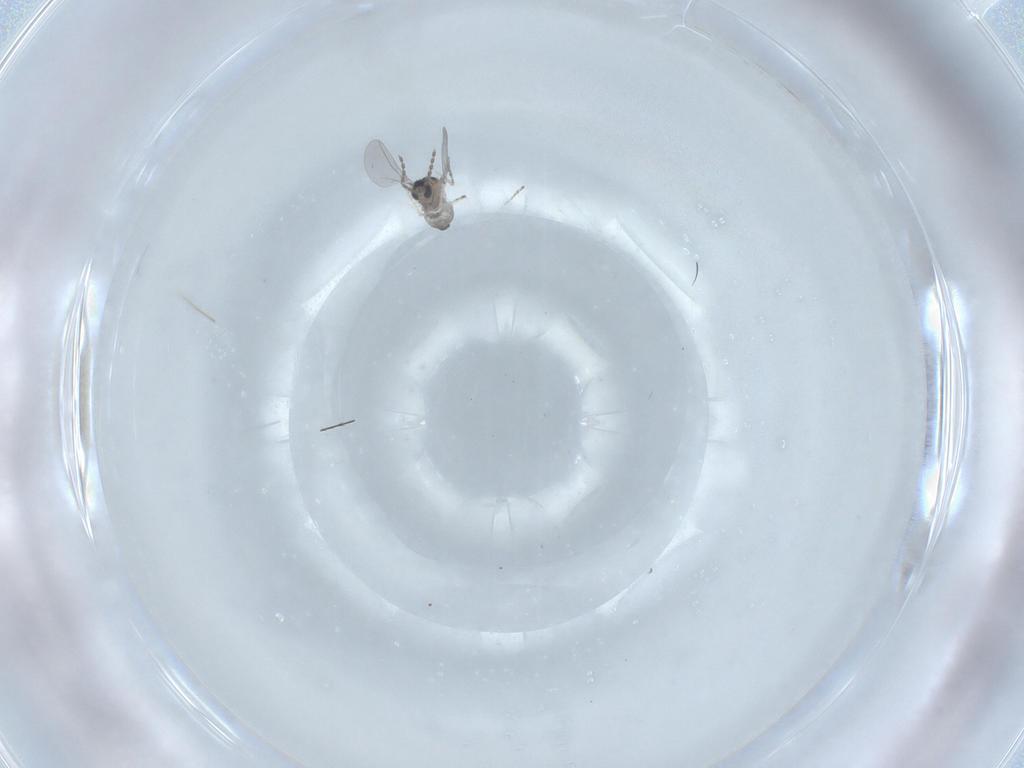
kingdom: Animalia
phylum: Arthropoda
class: Insecta
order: Diptera
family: Cecidomyiidae
